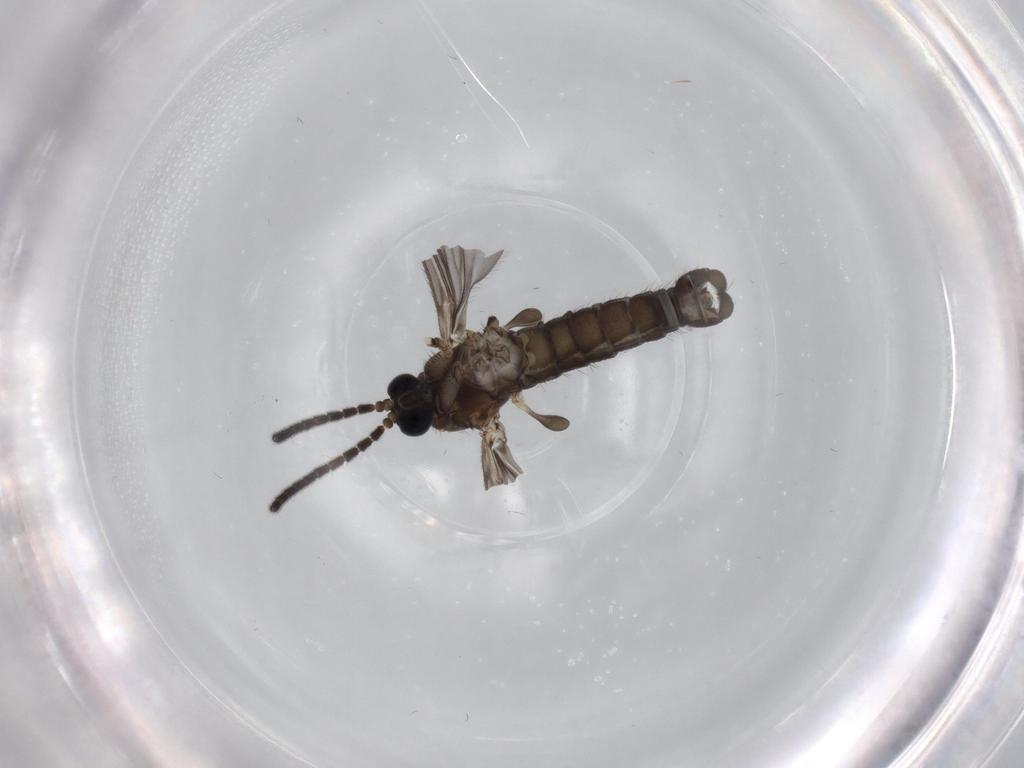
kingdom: Animalia
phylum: Arthropoda
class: Insecta
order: Diptera
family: Sciaridae
